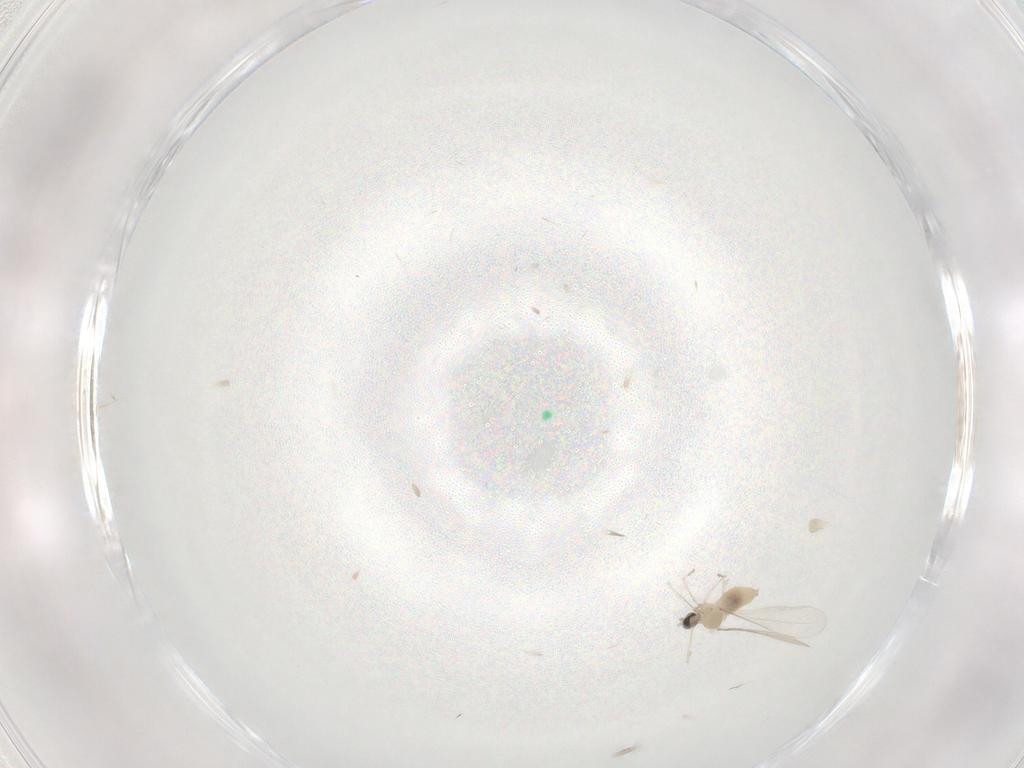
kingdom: Animalia
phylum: Arthropoda
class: Insecta
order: Diptera
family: Cecidomyiidae
